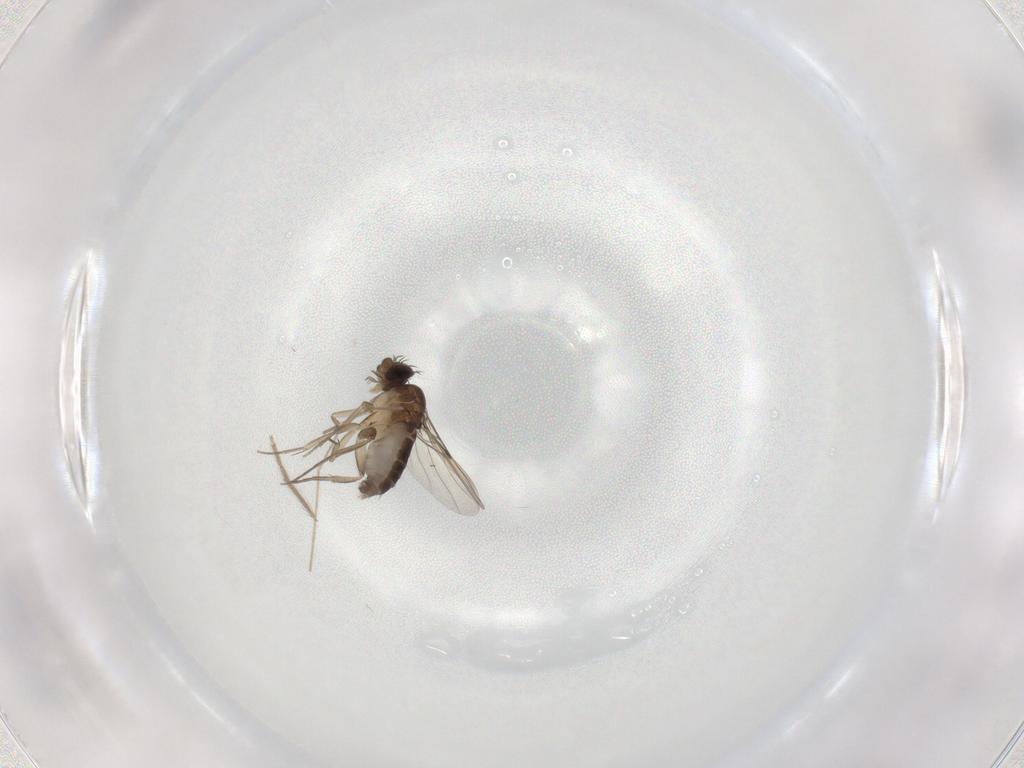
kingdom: Animalia
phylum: Arthropoda
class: Insecta
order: Diptera
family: Phoridae
